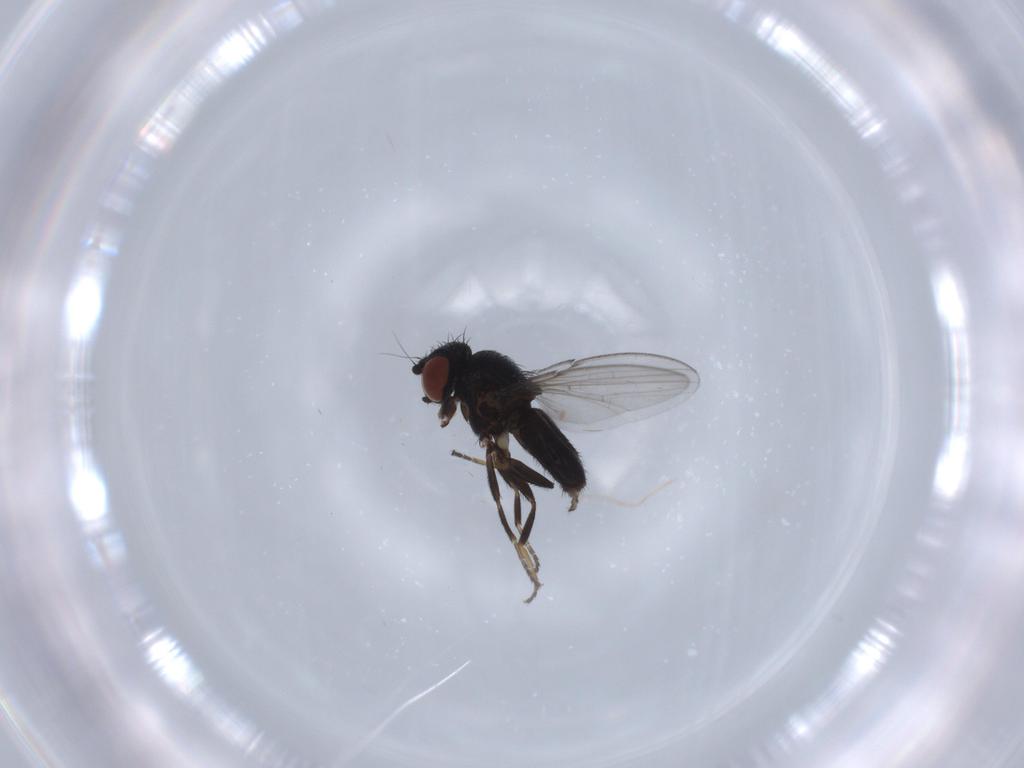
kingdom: Animalia
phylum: Arthropoda
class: Insecta
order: Diptera
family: Milichiidae
